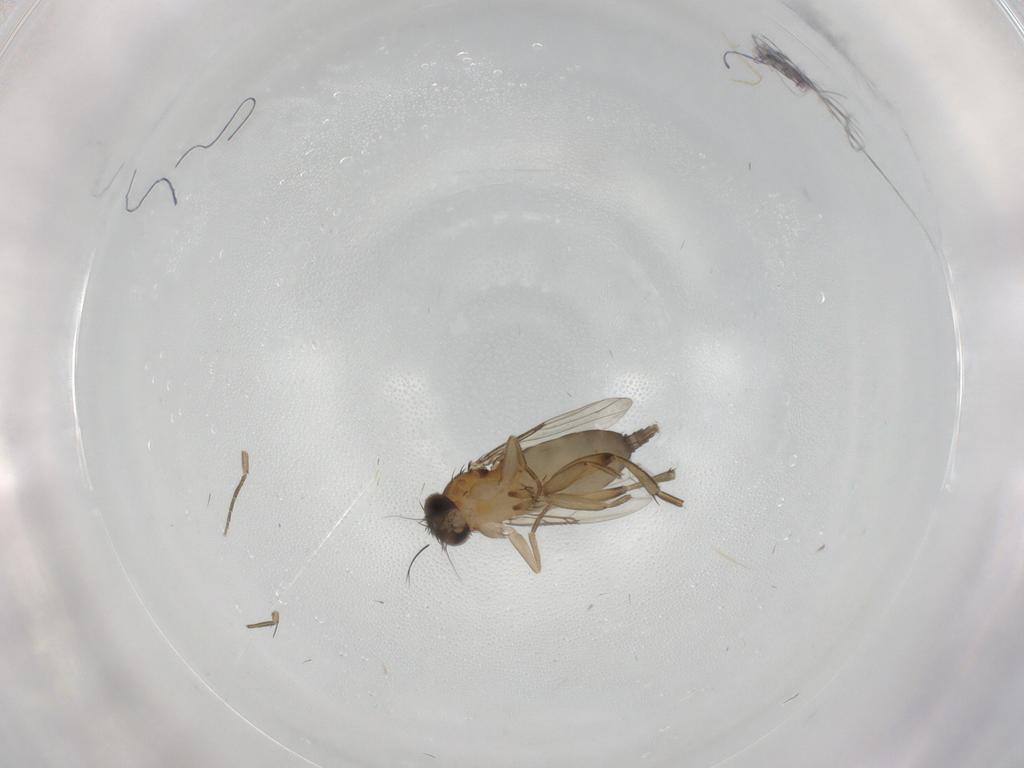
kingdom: Animalia
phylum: Arthropoda
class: Insecta
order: Diptera
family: Phoridae
